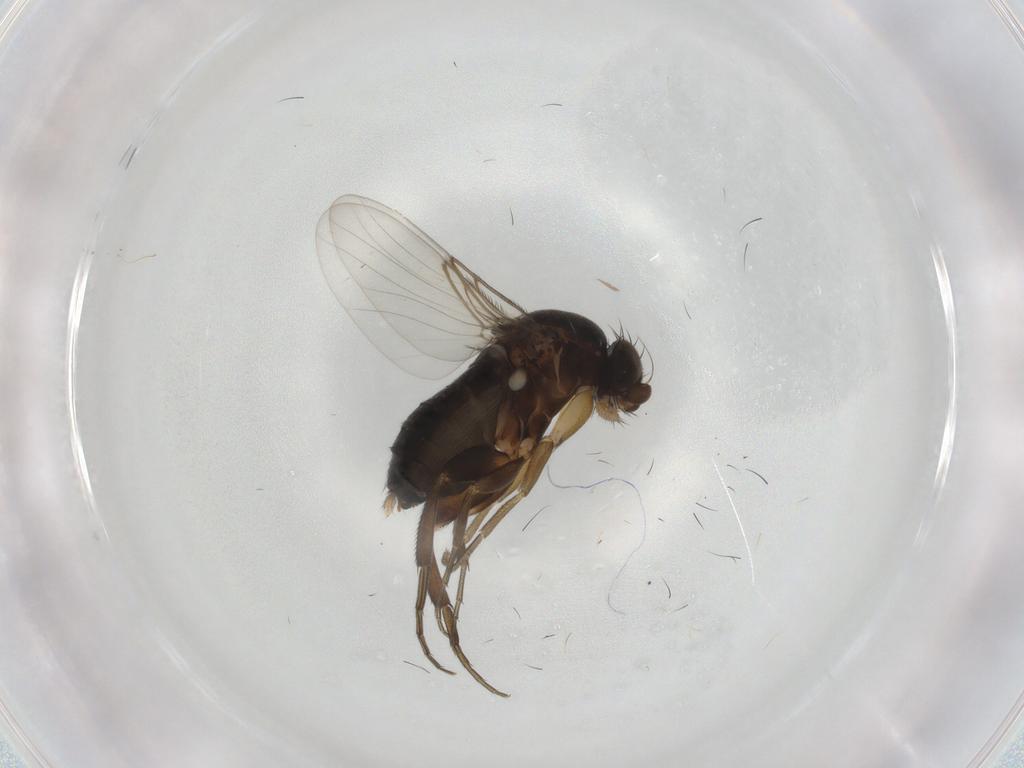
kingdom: Animalia
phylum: Arthropoda
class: Insecta
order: Diptera
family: Phoridae
